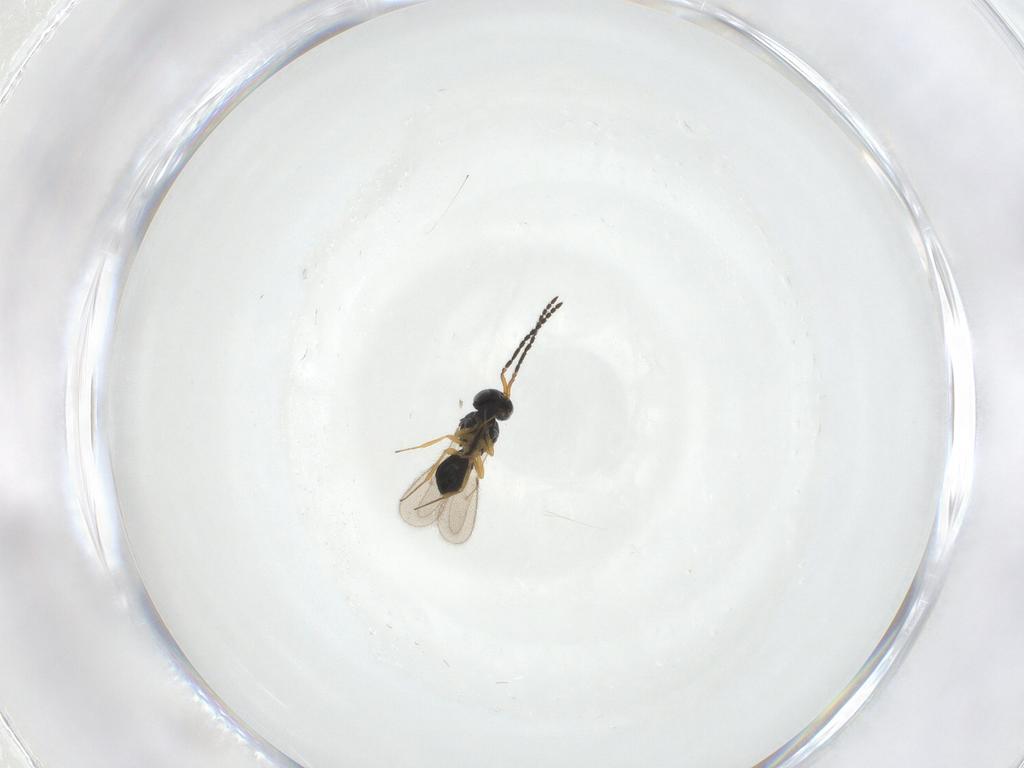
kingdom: Animalia
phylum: Arthropoda
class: Insecta
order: Hymenoptera
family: Scelionidae
